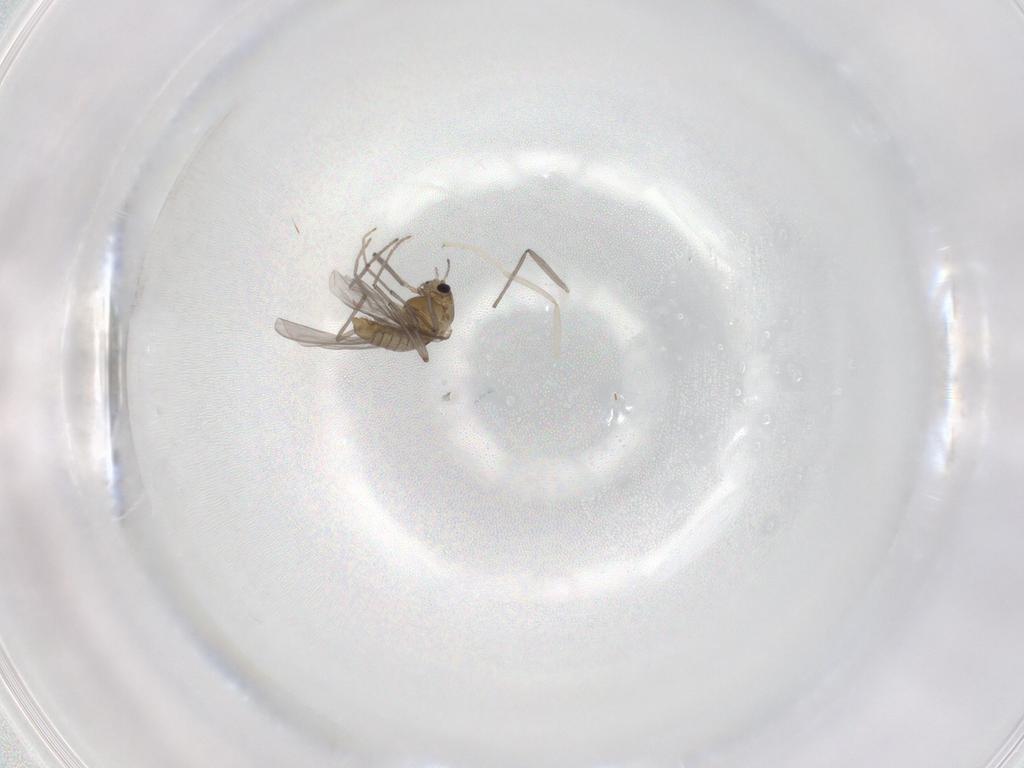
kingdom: Animalia
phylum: Arthropoda
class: Insecta
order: Diptera
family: Chironomidae
